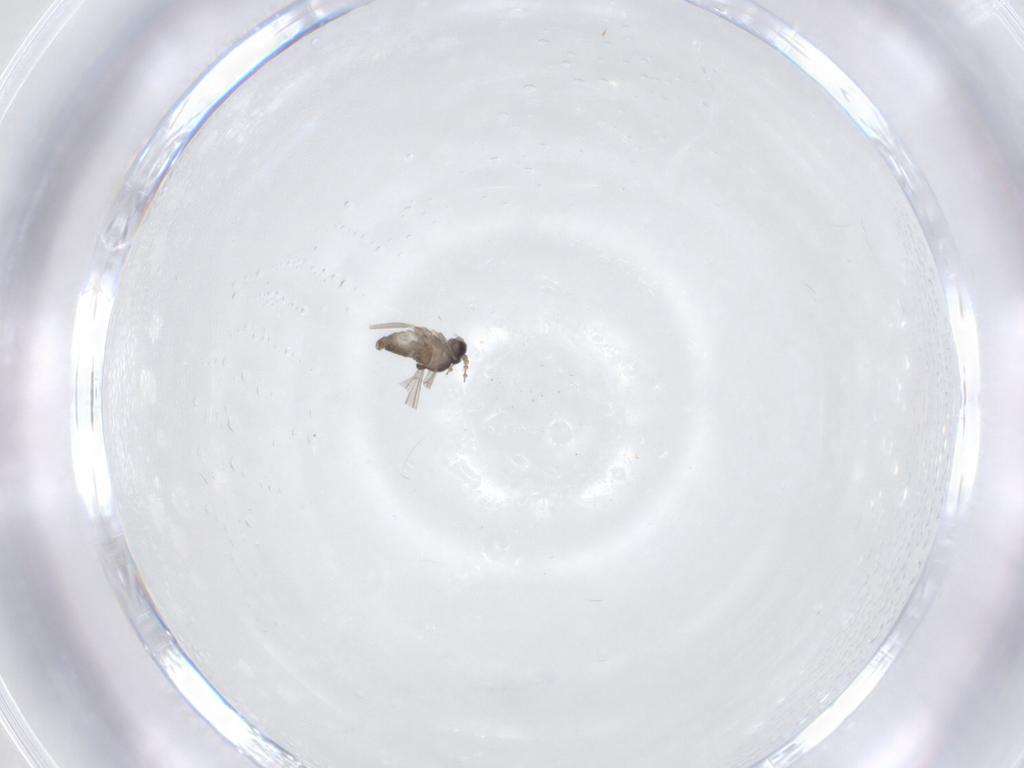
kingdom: Animalia
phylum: Arthropoda
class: Insecta
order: Diptera
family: Cecidomyiidae
